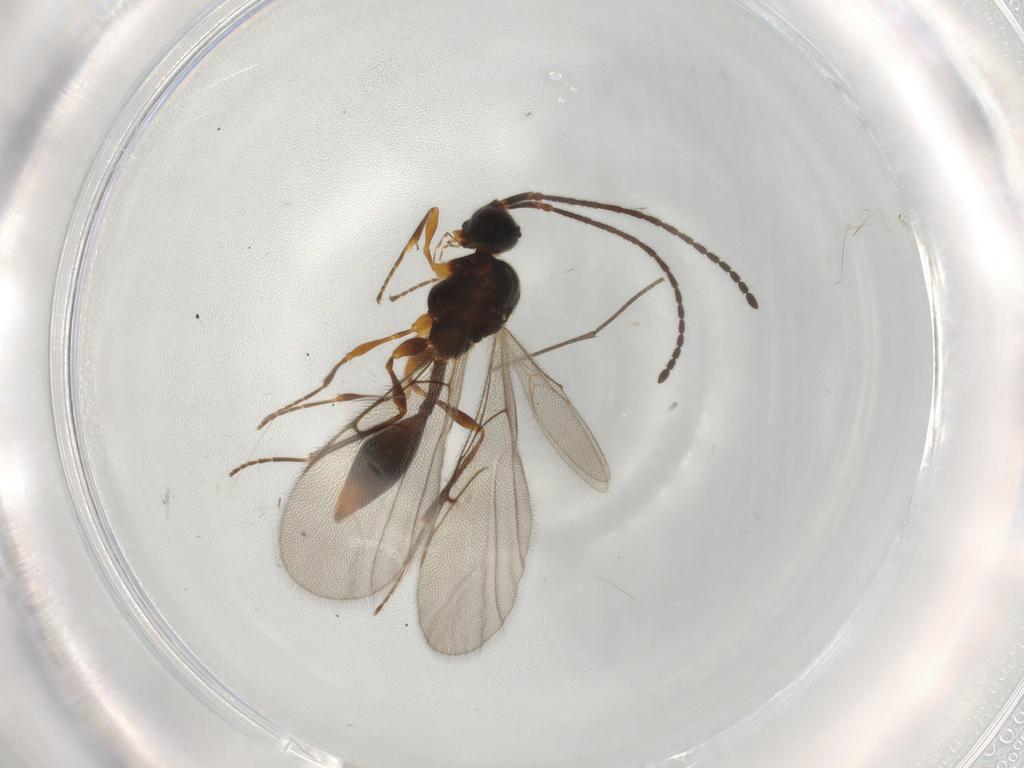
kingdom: Animalia
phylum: Arthropoda
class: Insecta
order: Hymenoptera
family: Diapriidae
